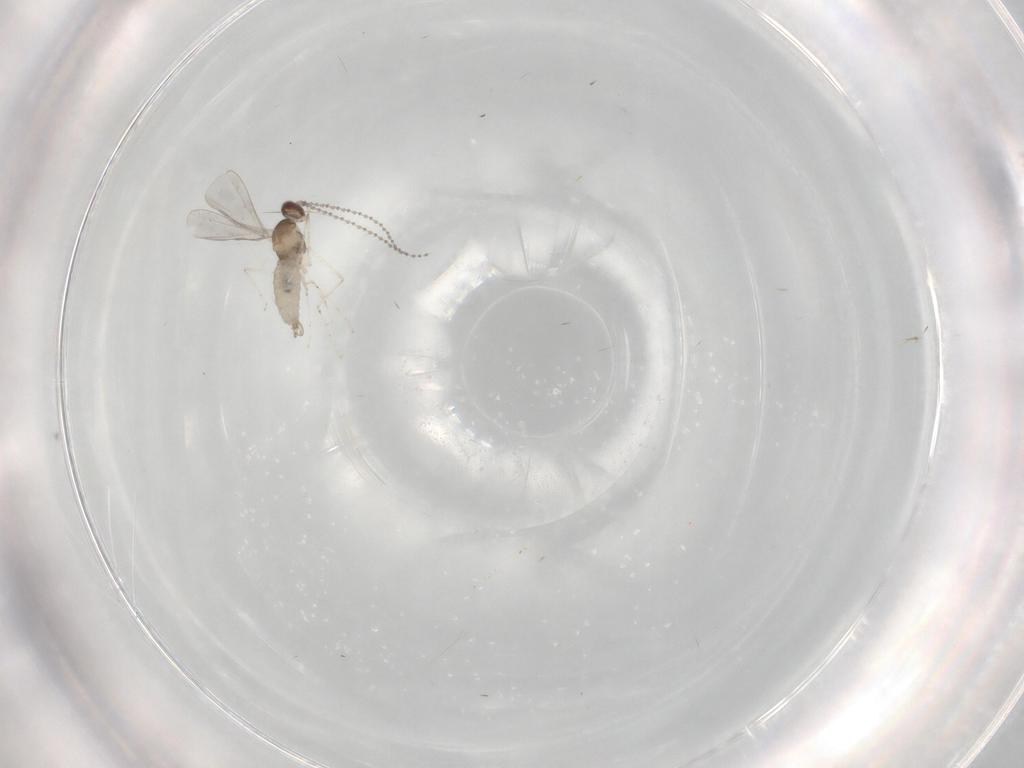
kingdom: Animalia
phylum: Arthropoda
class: Insecta
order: Diptera
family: Cecidomyiidae
